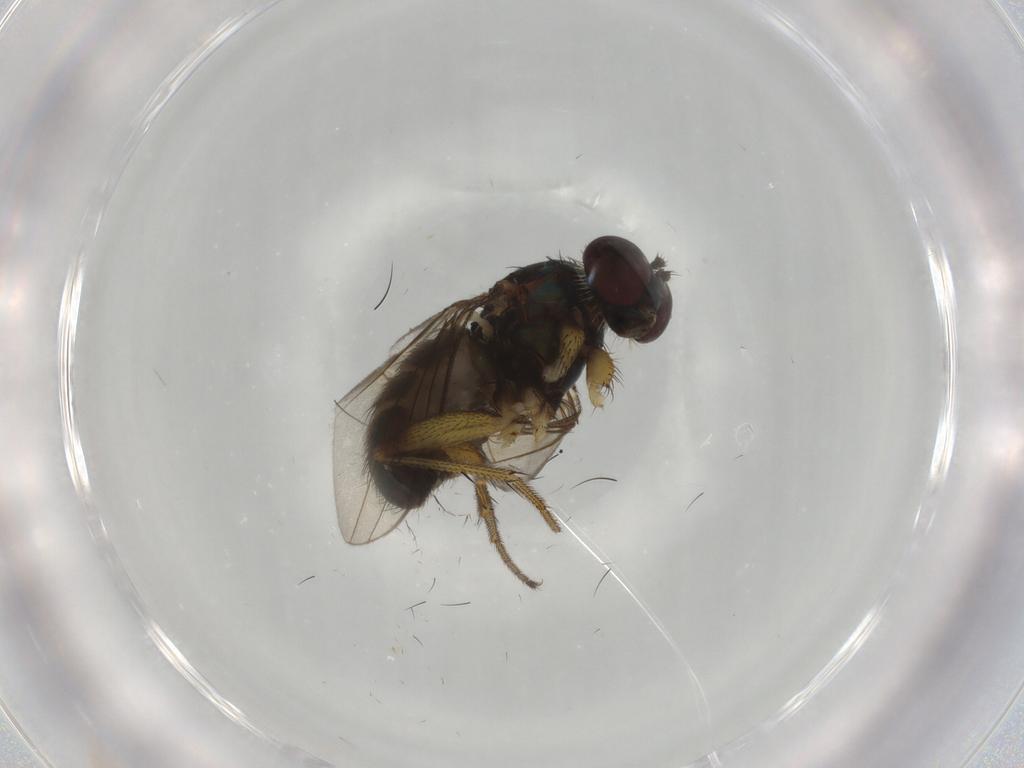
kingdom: Animalia
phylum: Arthropoda
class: Insecta
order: Diptera
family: Dolichopodidae
